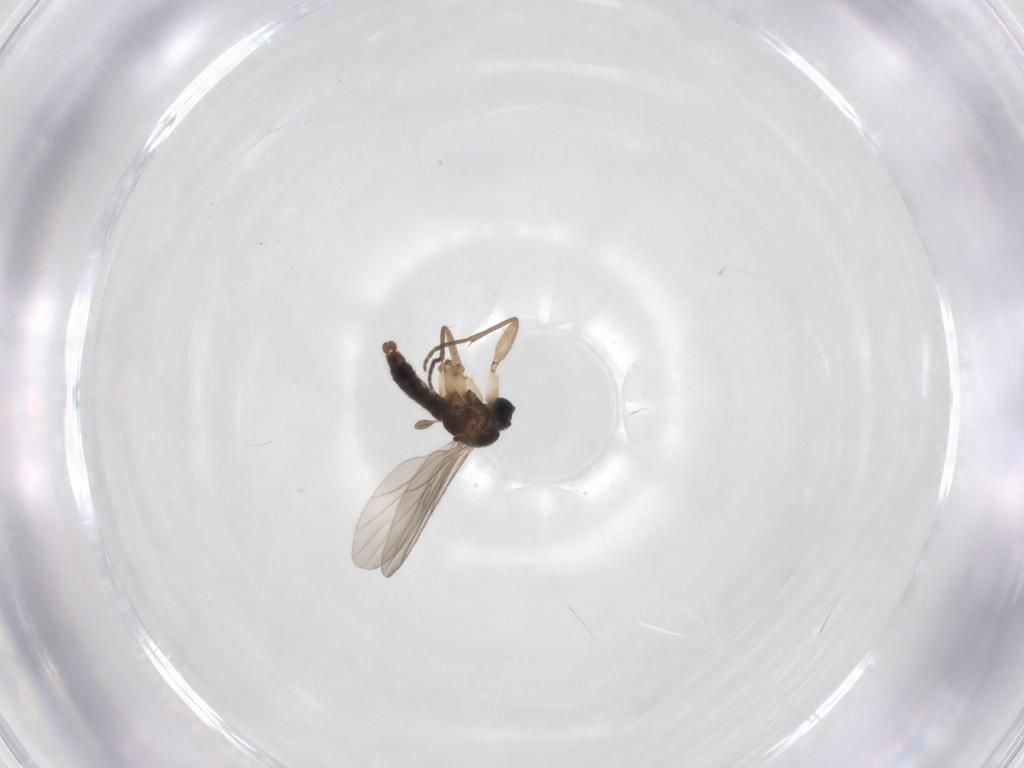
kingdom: Animalia
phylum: Arthropoda
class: Insecta
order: Diptera
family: Sciaridae
